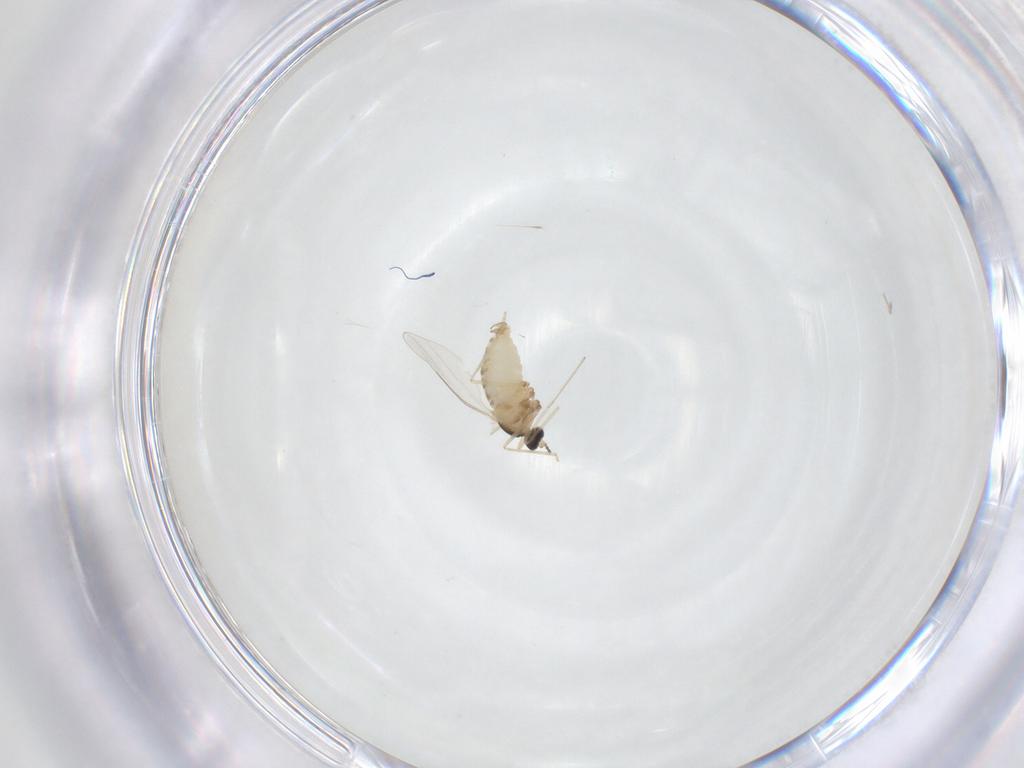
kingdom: Animalia
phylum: Arthropoda
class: Insecta
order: Diptera
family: Cecidomyiidae
